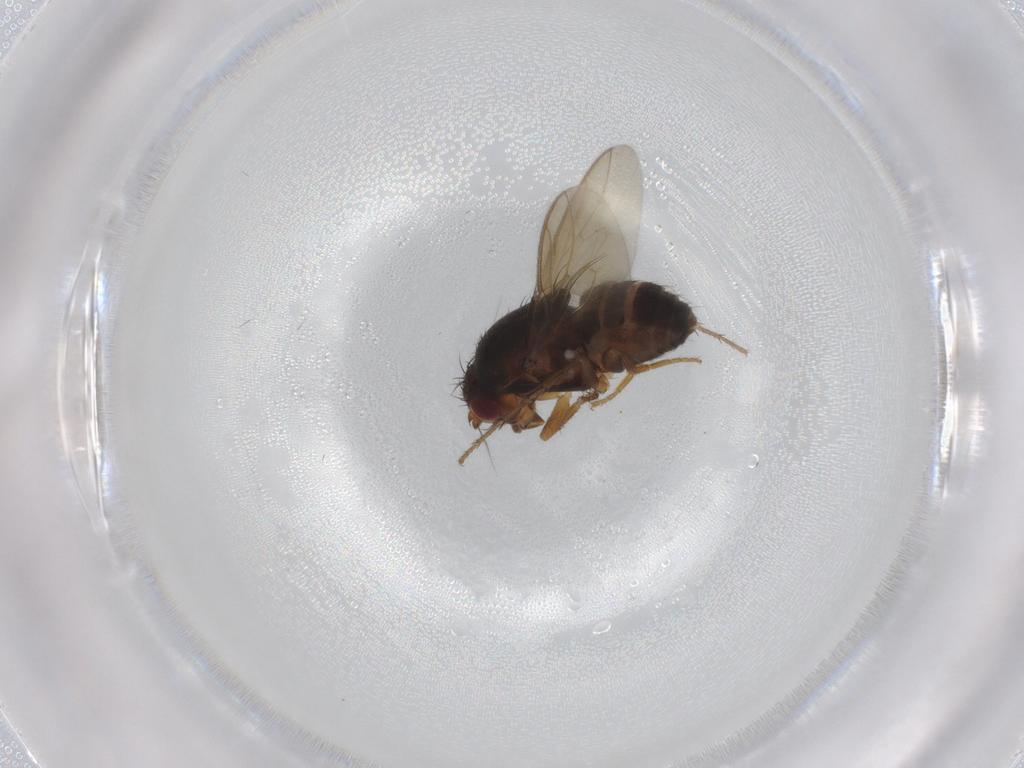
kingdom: Animalia
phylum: Arthropoda
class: Insecta
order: Diptera
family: Sphaeroceridae
